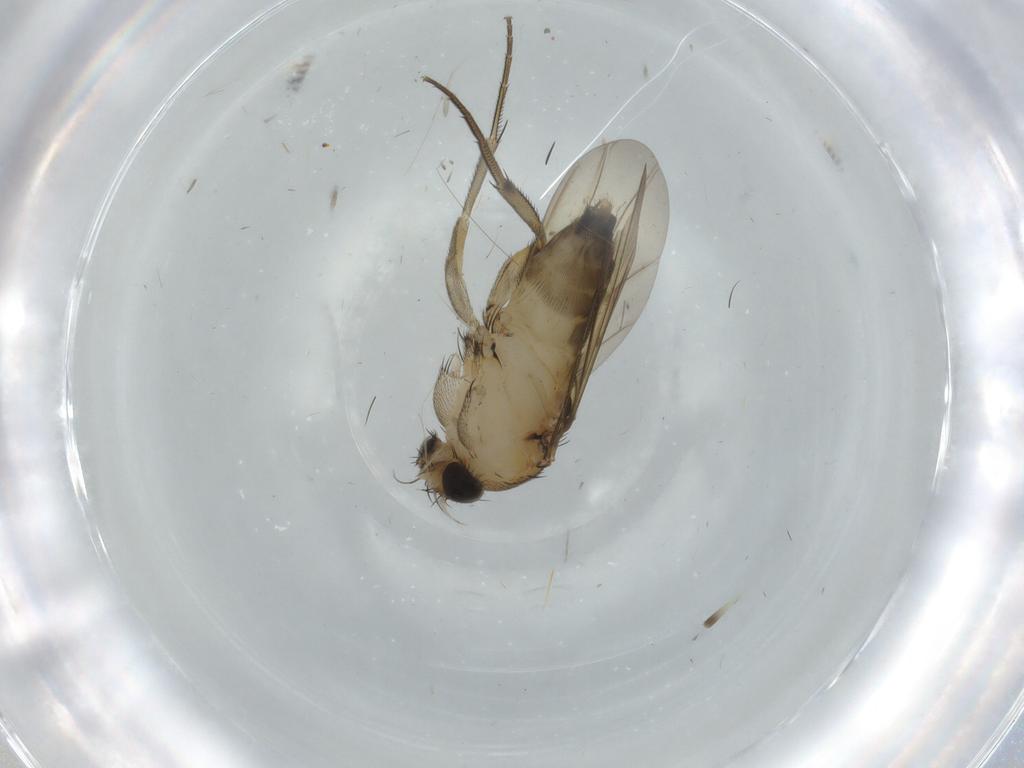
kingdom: Animalia
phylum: Arthropoda
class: Insecta
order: Diptera
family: Phoridae
